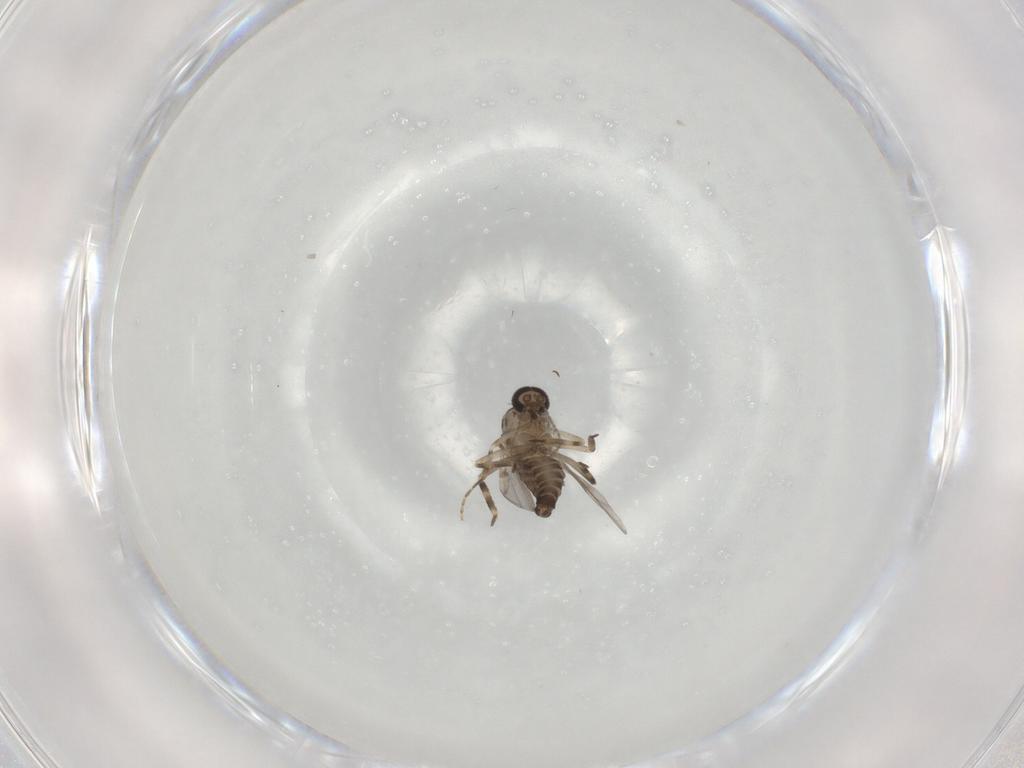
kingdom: Animalia
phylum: Arthropoda
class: Insecta
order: Diptera
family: Ceratopogonidae
